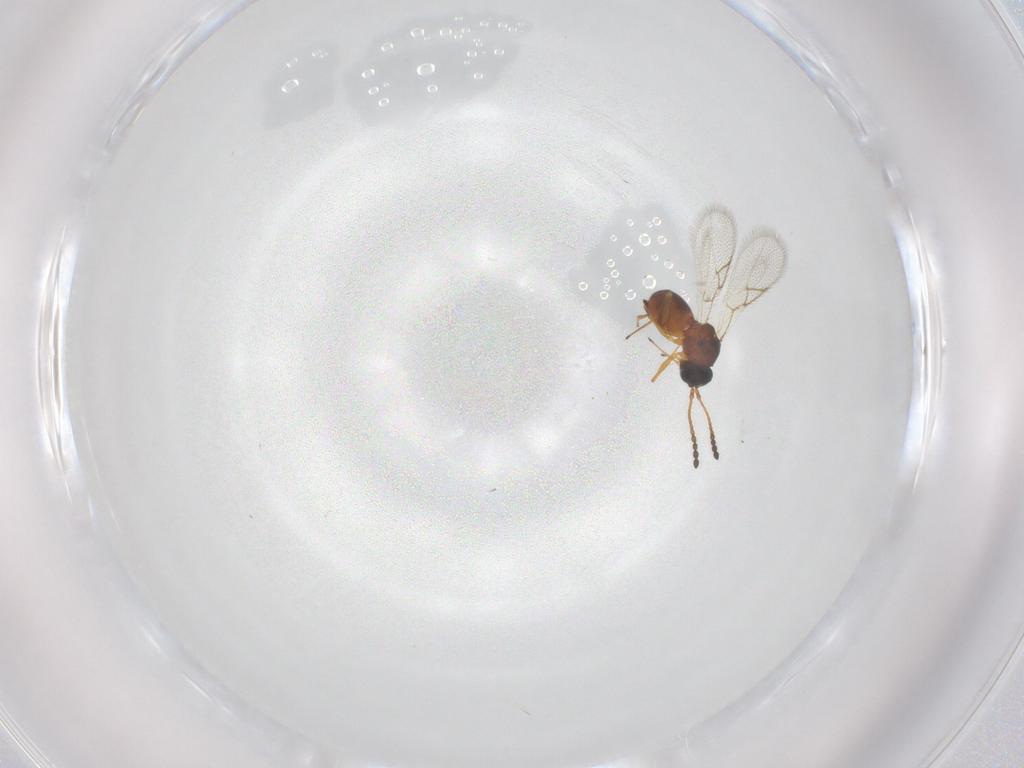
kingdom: Animalia
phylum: Arthropoda
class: Insecta
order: Hymenoptera
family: Figitidae
